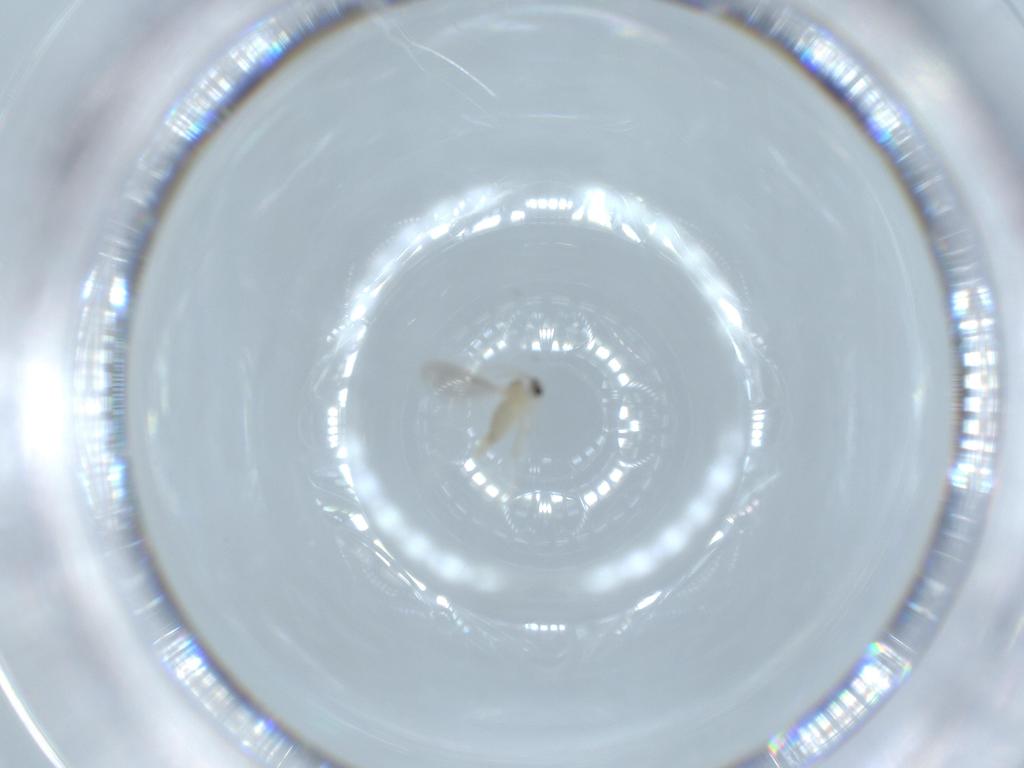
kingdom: Animalia
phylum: Arthropoda
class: Insecta
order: Diptera
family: Cecidomyiidae
